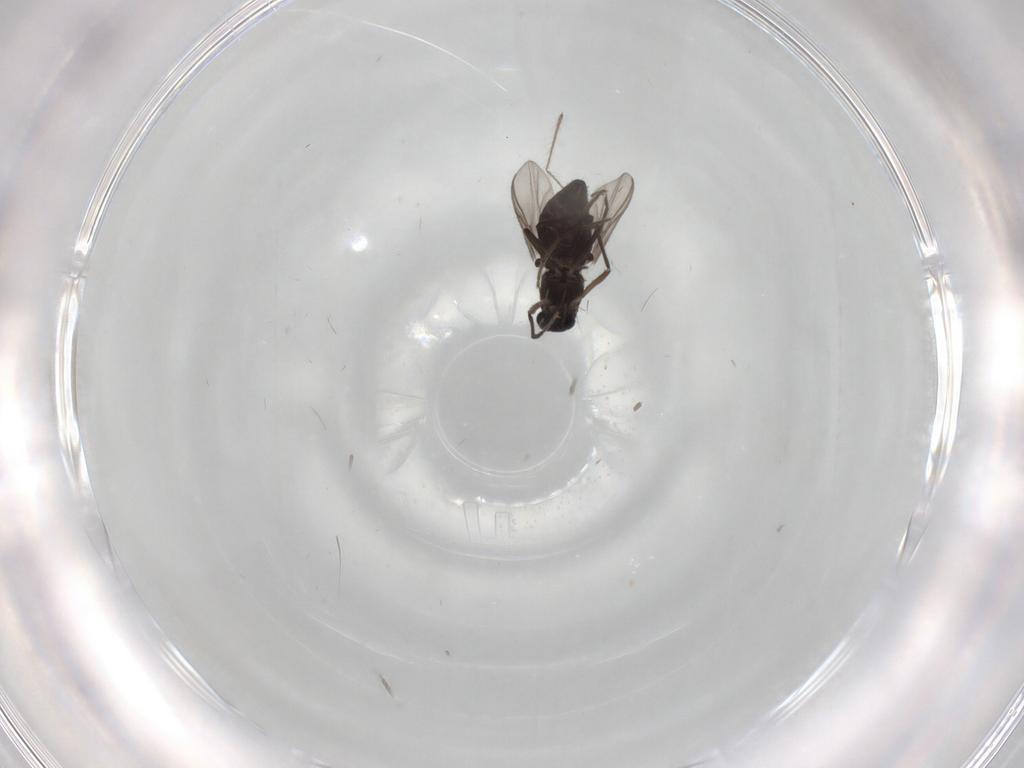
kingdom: Animalia
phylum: Arthropoda
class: Insecta
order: Diptera
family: Chironomidae
